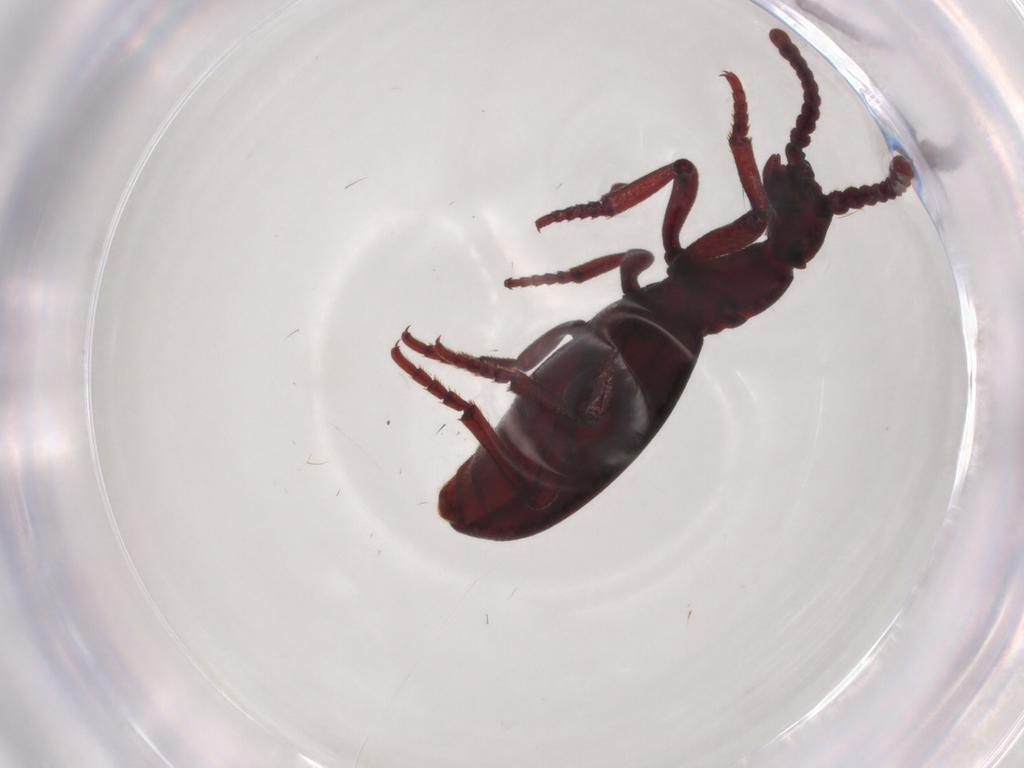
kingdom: Animalia
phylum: Arthropoda
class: Insecta
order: Coleoptera
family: Anthicidae
